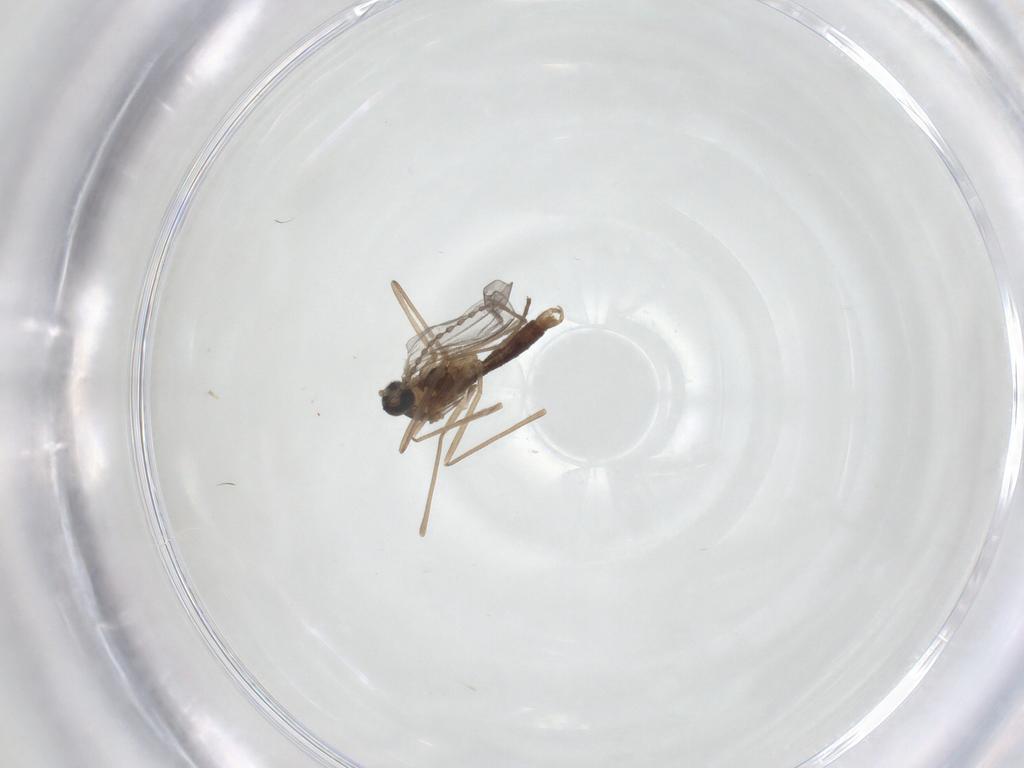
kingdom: Animalia
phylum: Arthropoda
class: Insecta
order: Diptera
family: Cecidomyiidae
